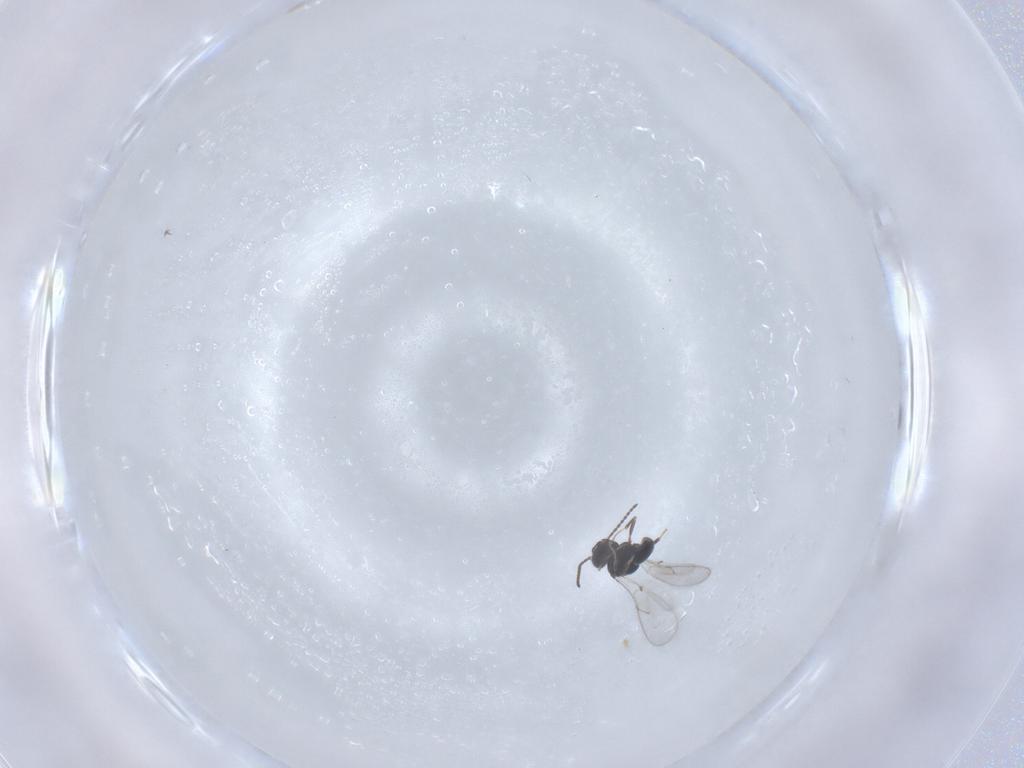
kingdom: Animalia
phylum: Arthropoda
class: Insecta
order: Hymenoptera
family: Scelionidae
